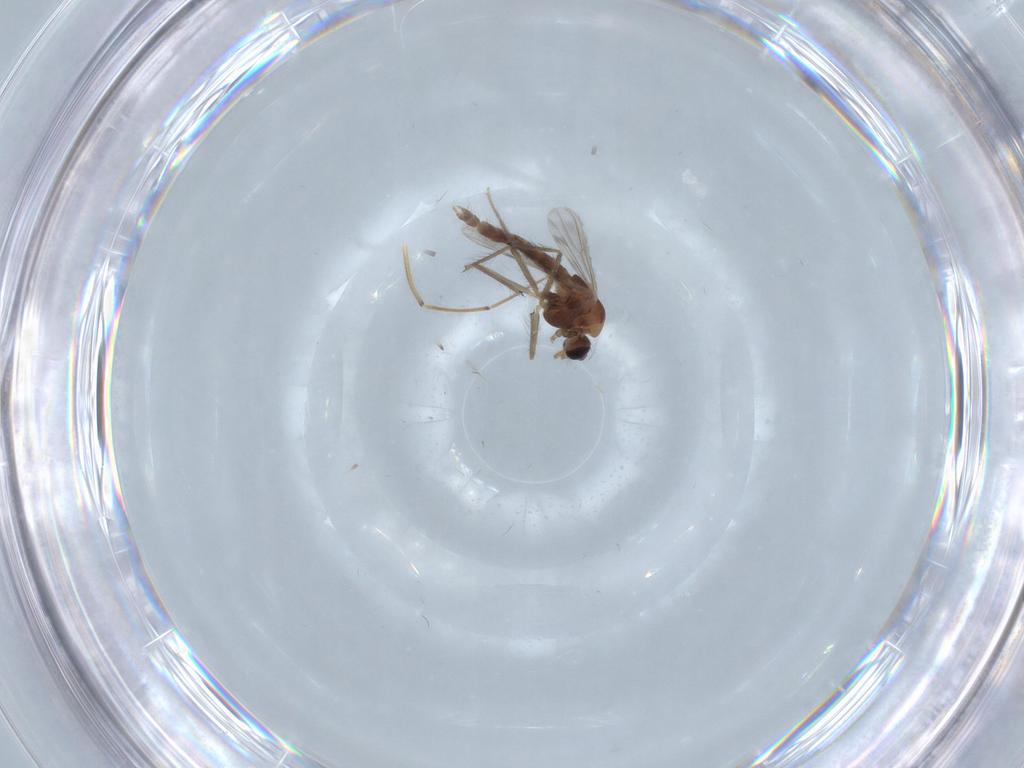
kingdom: Animalia
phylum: Arthropoda
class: Insecta
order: Diptera
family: Chironomidae
